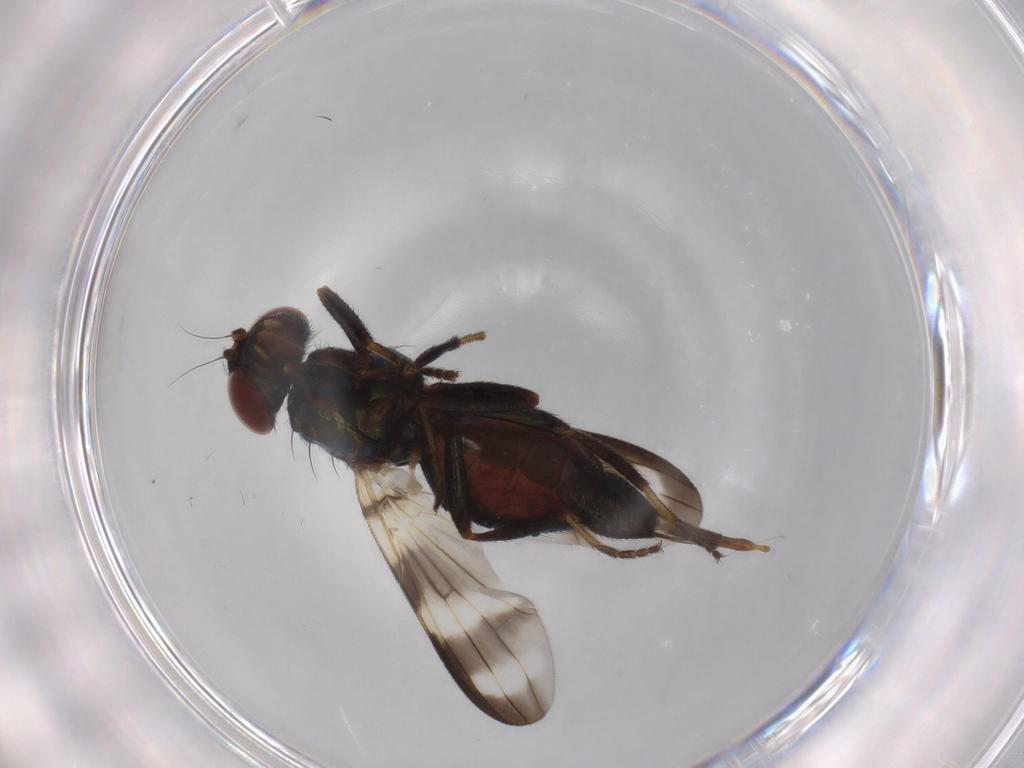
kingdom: Animalia
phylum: Arthropoda
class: Insecta
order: Diptera
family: Ulidiidae
